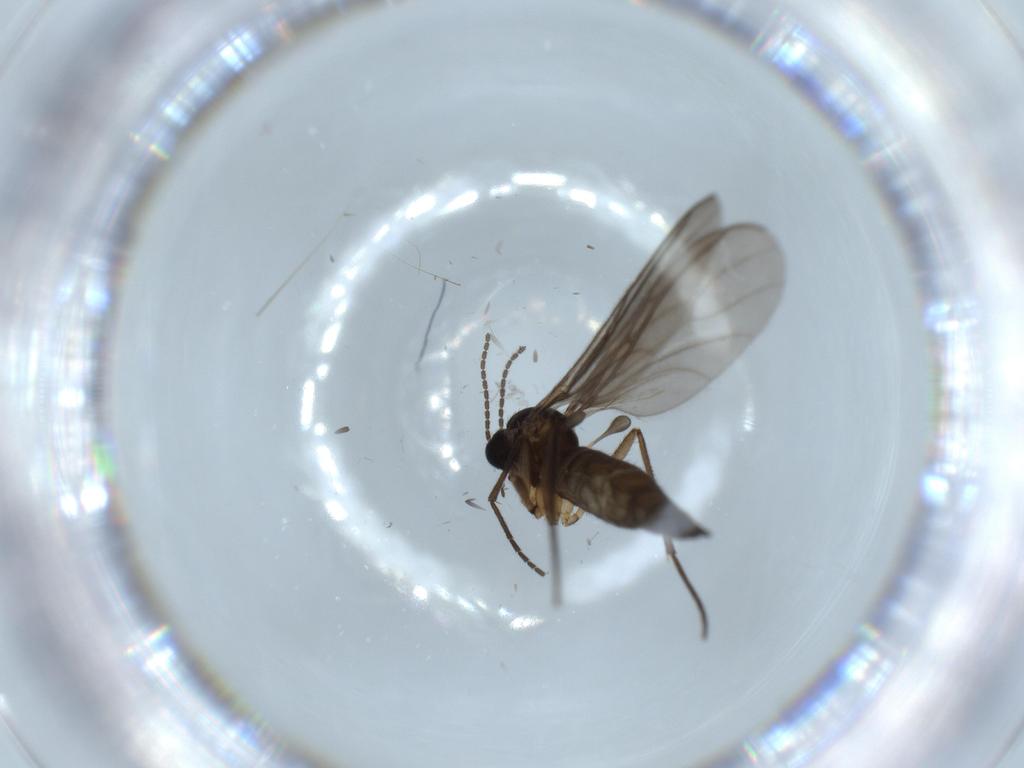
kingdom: Animalia
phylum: Arthropoda
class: Insecta
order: Diptera
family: Sciaridae
